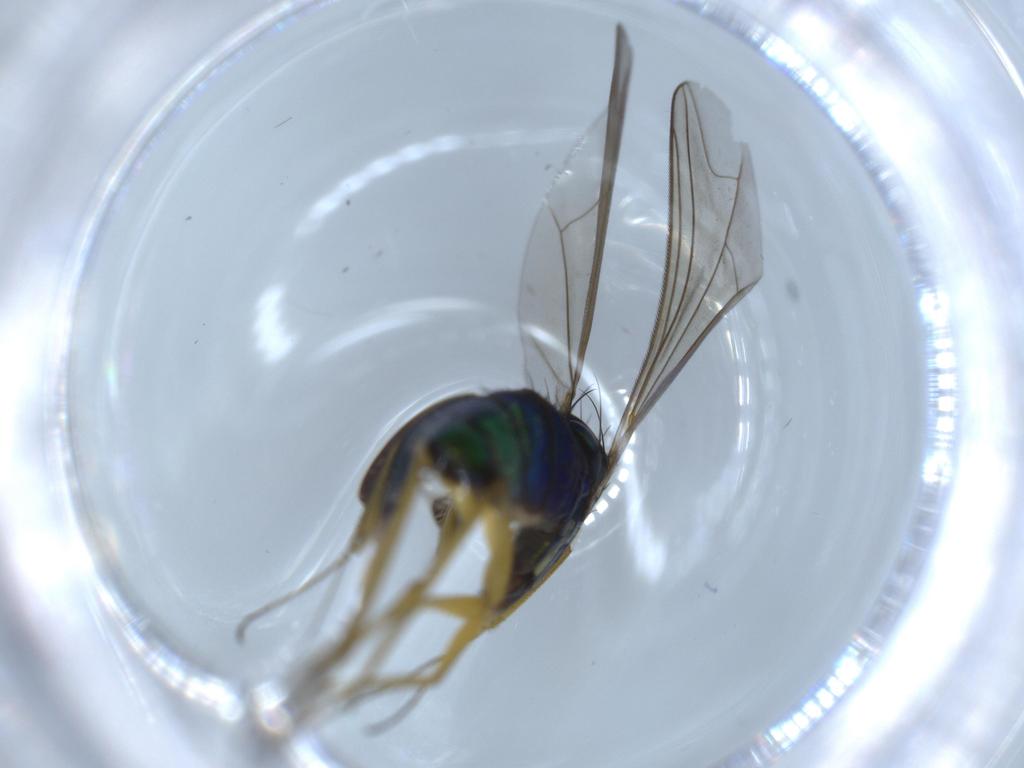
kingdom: Animalia
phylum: Arthropoda
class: Insecta
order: Diptera
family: Dolichopodidae
